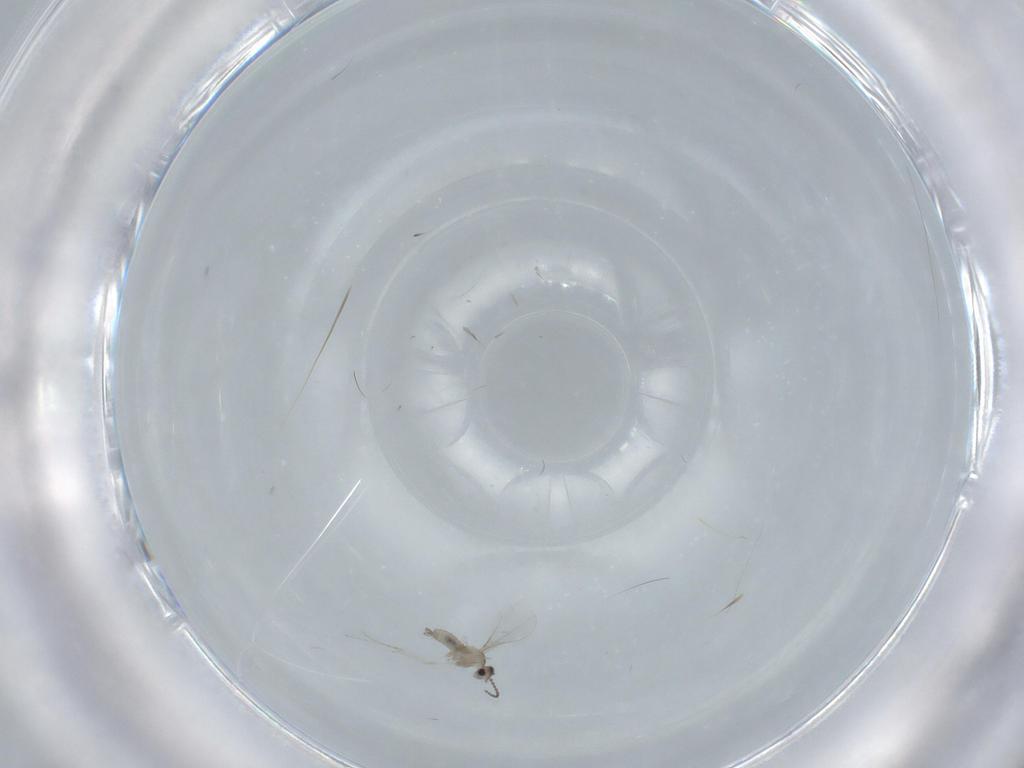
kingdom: Animalia
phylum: Arthropoda
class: Insecta
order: Diptera
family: Cecidomyiidae
